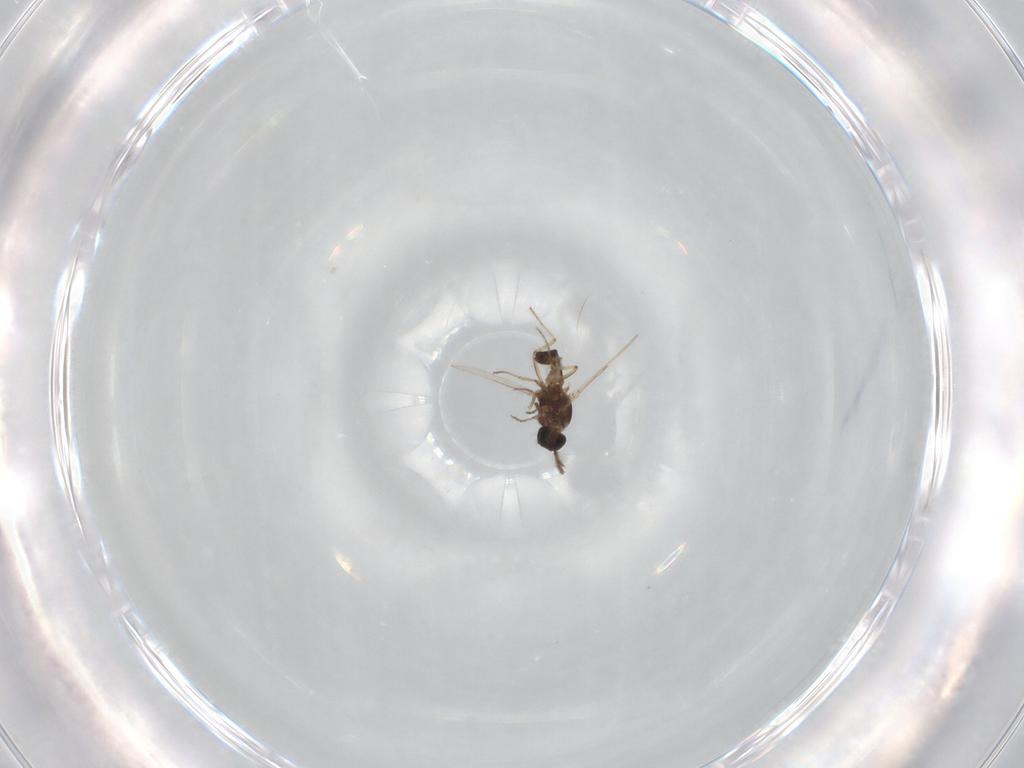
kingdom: Animalia
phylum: Arthropoda
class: Insecta
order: Diptera
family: Sciaridae
